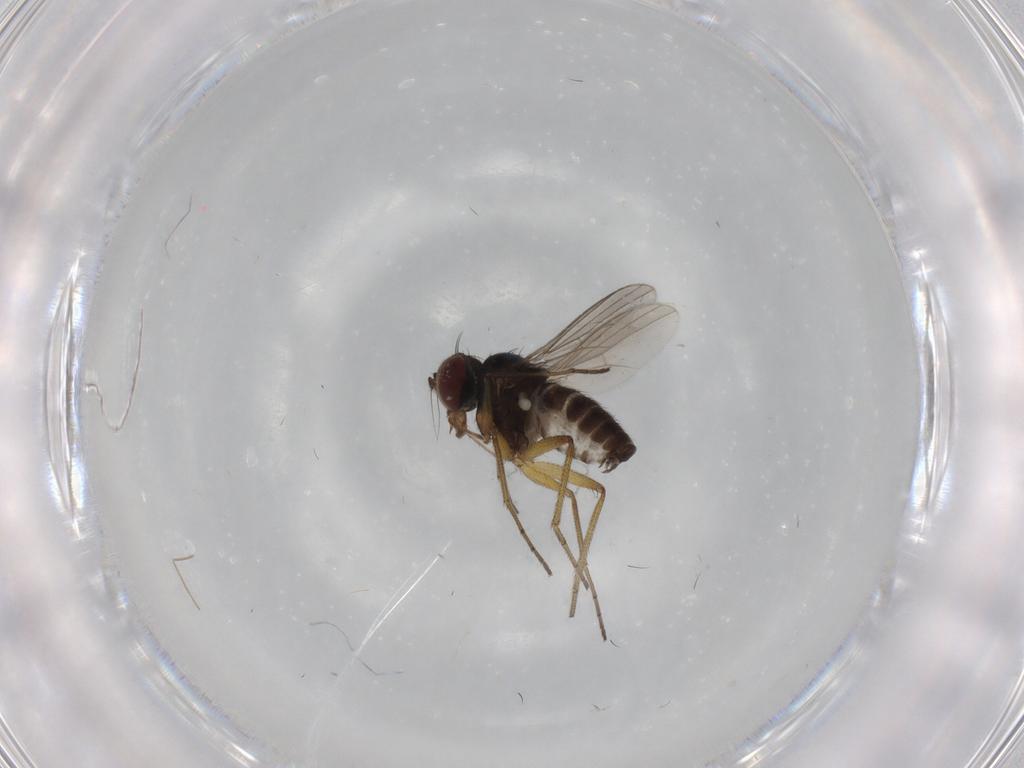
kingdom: Animalia
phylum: Arthropoda
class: Insecta
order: Diptera
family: Dolichopodidae
